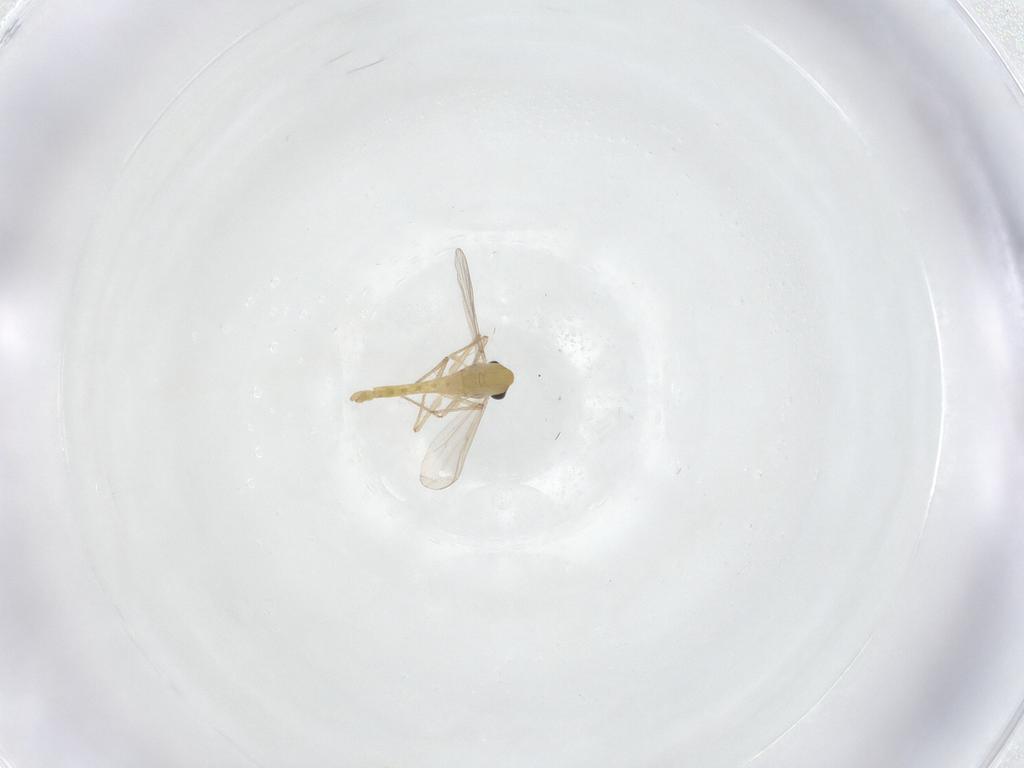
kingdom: Animalia
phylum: Arthropoda
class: Insecta
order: Diptera
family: Chironomidae
